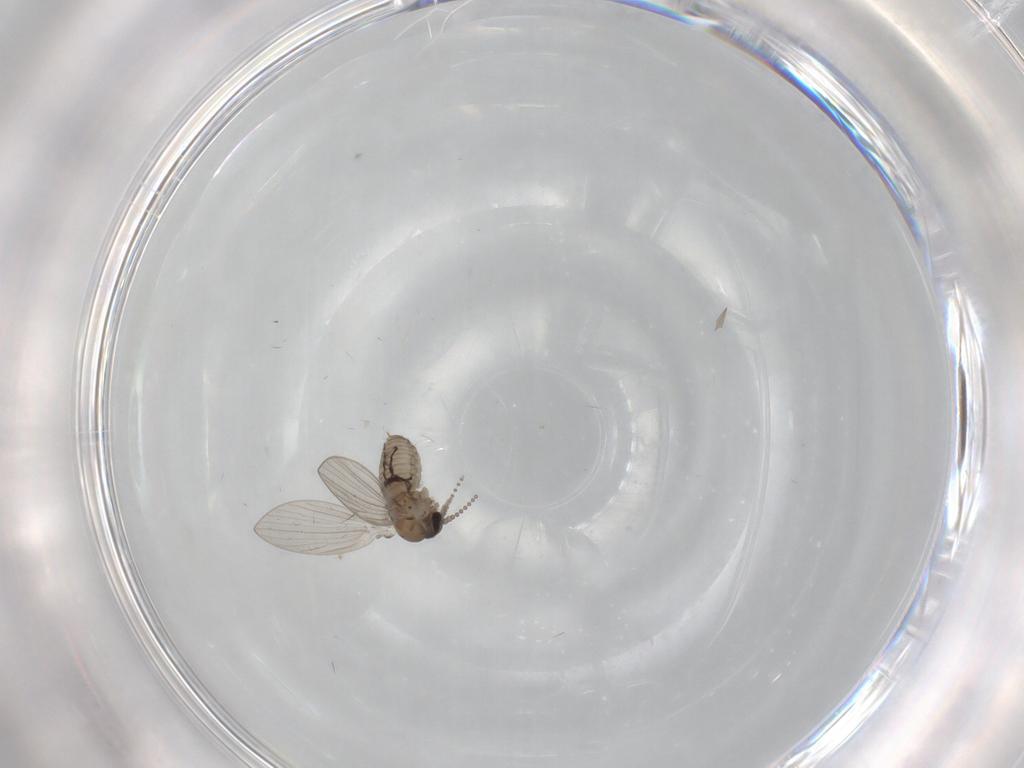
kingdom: Animalia
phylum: Arthropoda
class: Insecta
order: Diptera
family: Psychodidae
